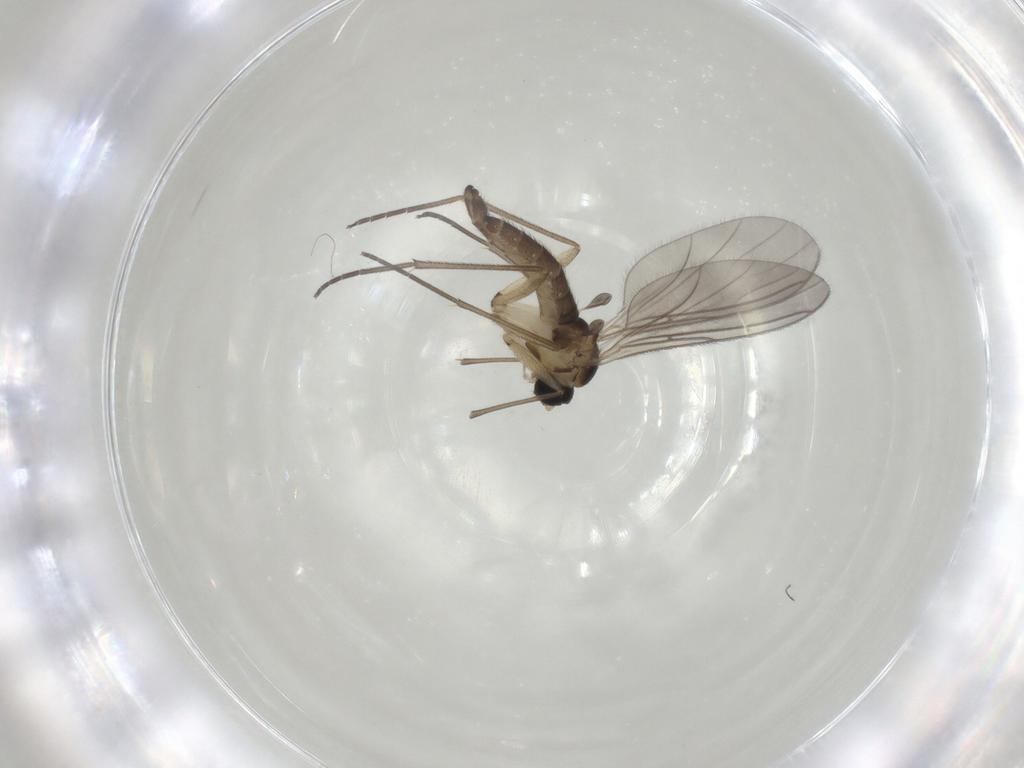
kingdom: Animalia
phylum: Arthropoda
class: Insecta
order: Diptera
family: Sciaridae
